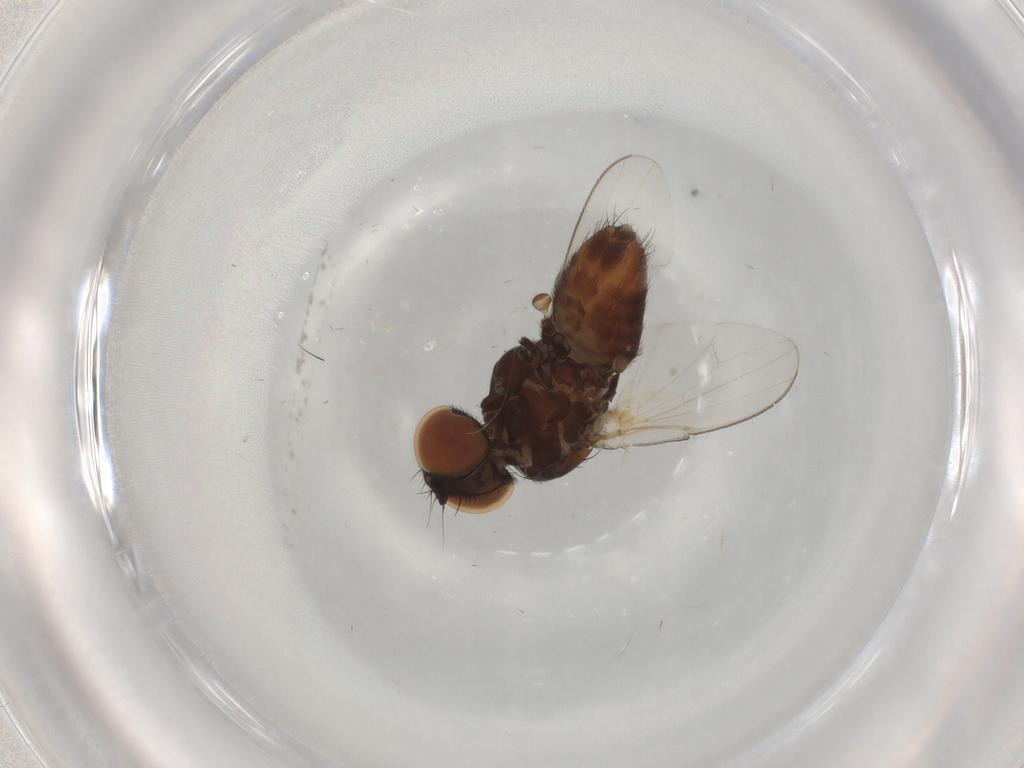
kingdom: Animalia
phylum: Arthropoda
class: Insecta
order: Diptera
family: Milichiidae
